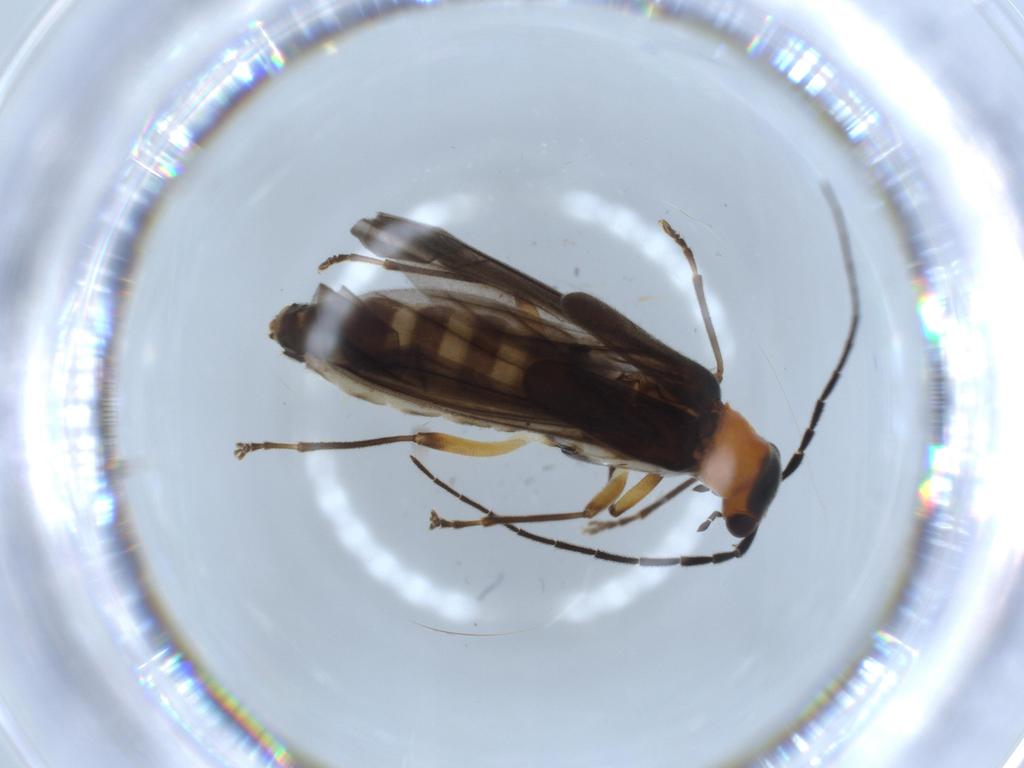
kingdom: Animalia
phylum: Arthropoda
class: Insecta
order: Coleoptera
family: Cantharidae
